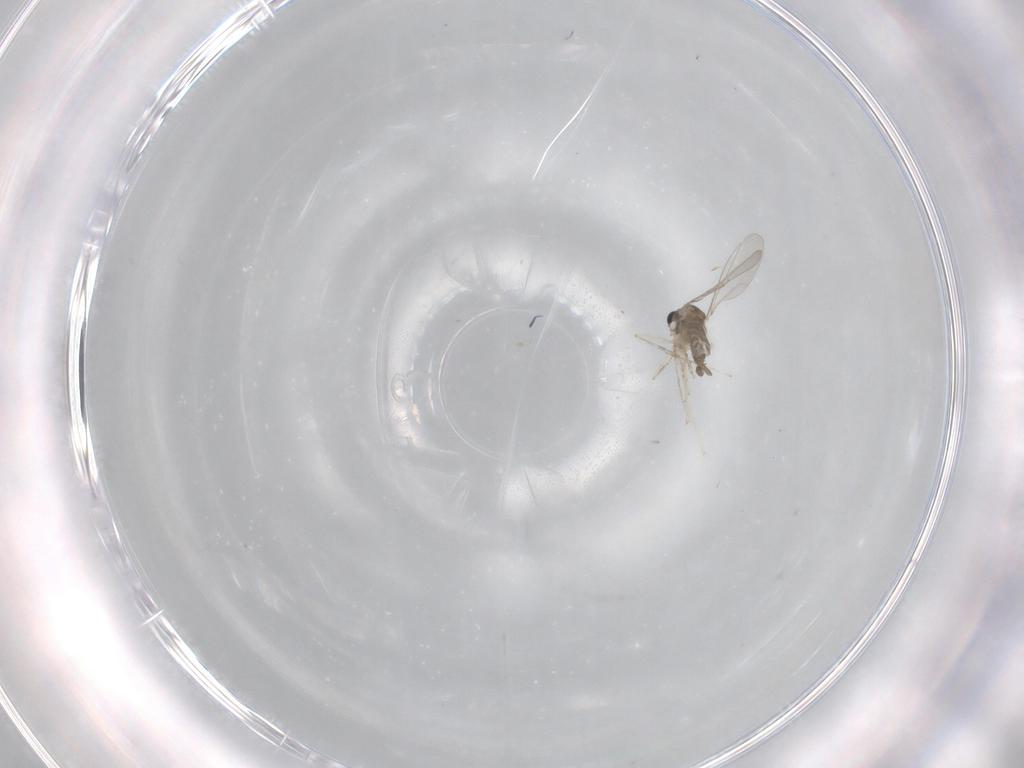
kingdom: Animalia
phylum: Arthropoda
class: Insecta
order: Diptera
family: Cecidomyiidae
